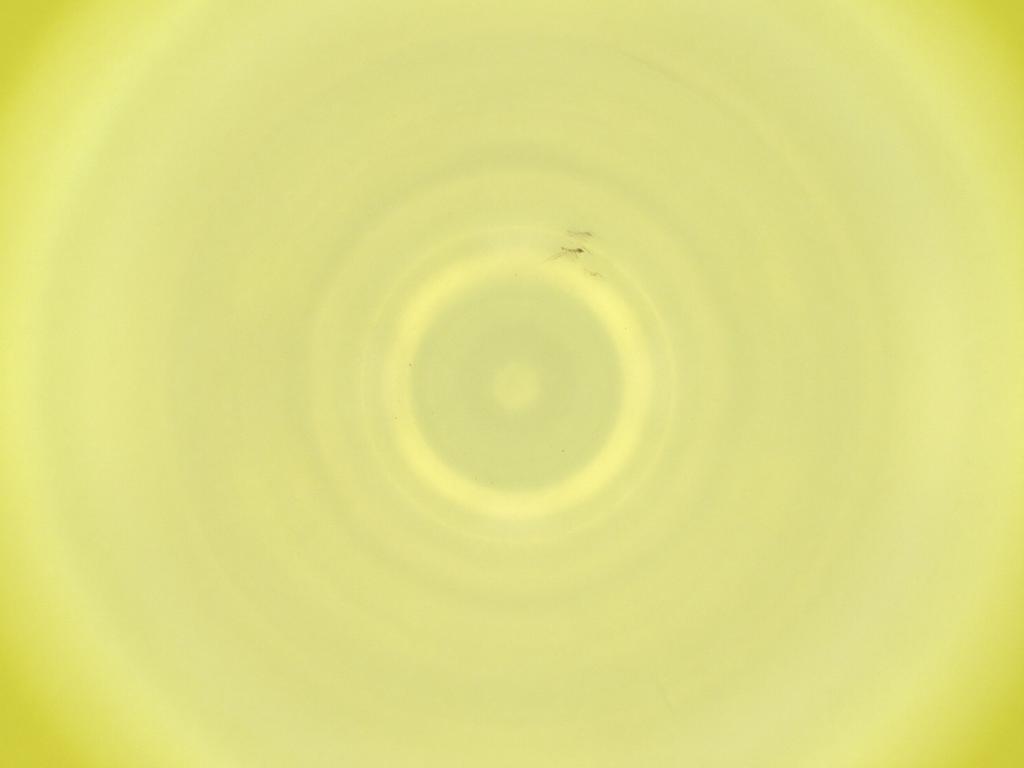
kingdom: Animalia
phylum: Arthropoda
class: Insecta
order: Diptera
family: Cecidomyiidae
